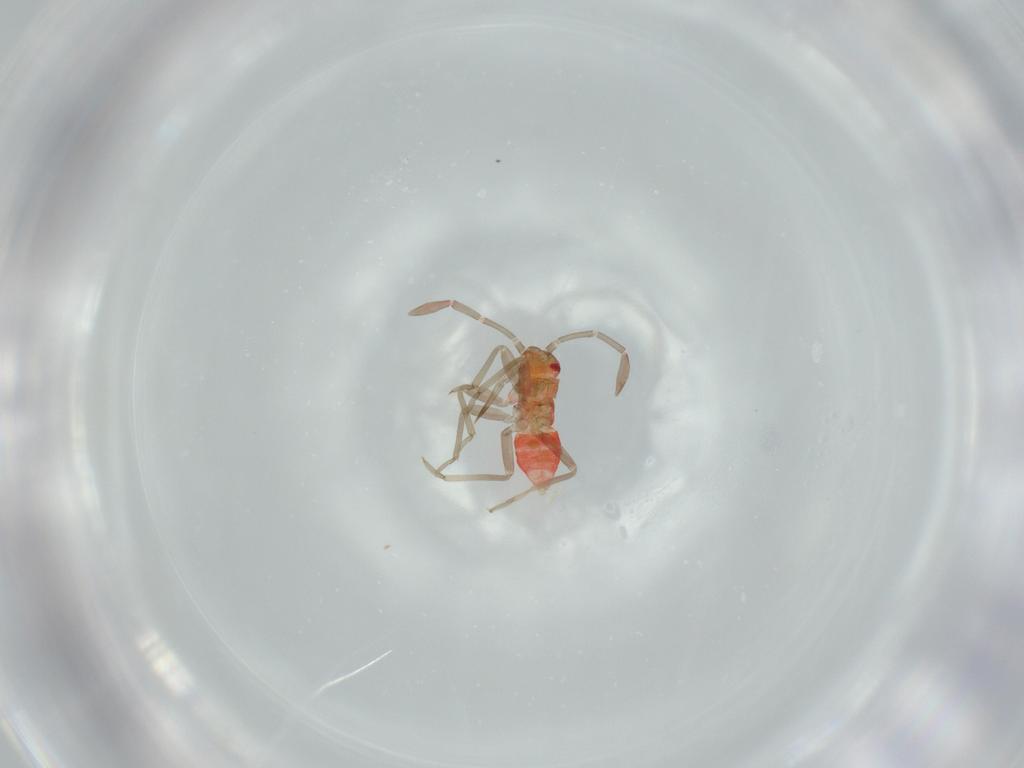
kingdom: Animalia
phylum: Arthropoda
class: Insecta
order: Hemiptera
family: Miridae
